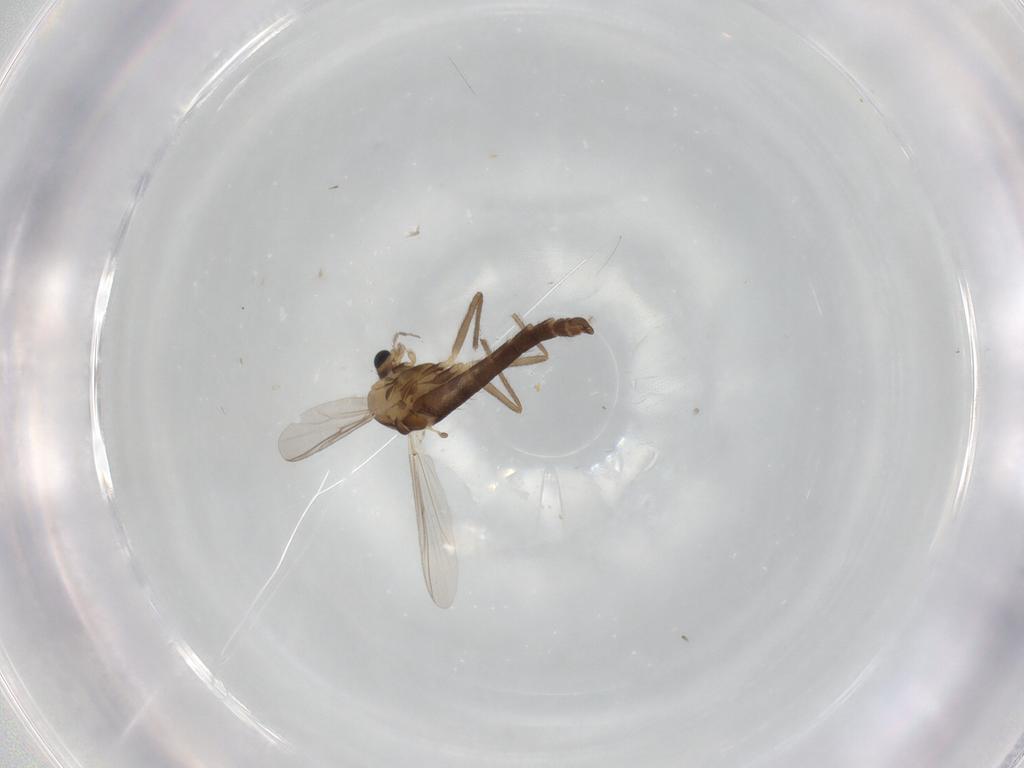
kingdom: Animalia
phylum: Arthropoda
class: Insecta
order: Diptera
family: Chironomidae
